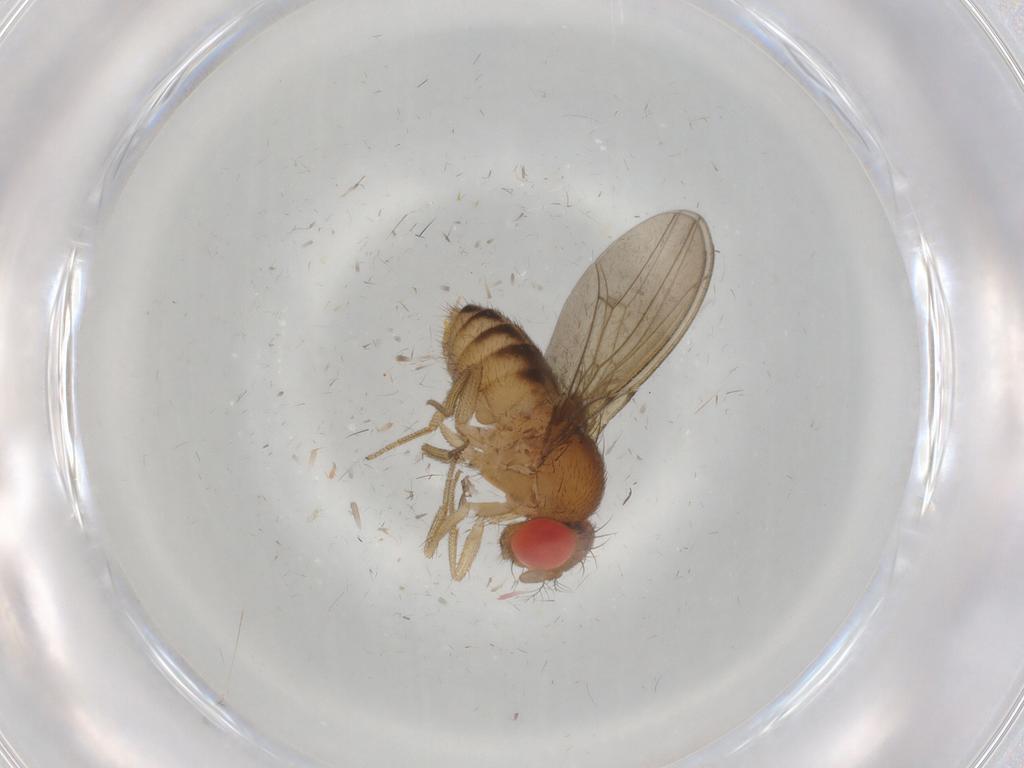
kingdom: Animalia
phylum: Arthropoda
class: Insecta
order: Diptera
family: Drosophilidae
